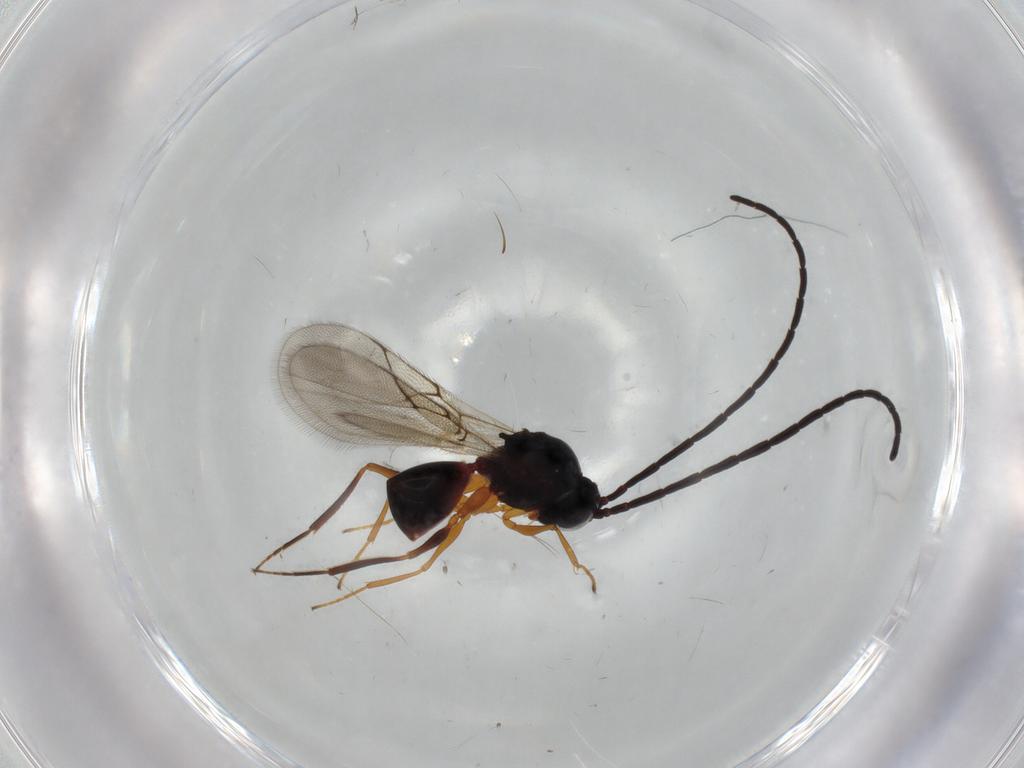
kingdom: Animalia
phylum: Arthropoda
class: Insecta
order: Hymenoptera
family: Figitidae
